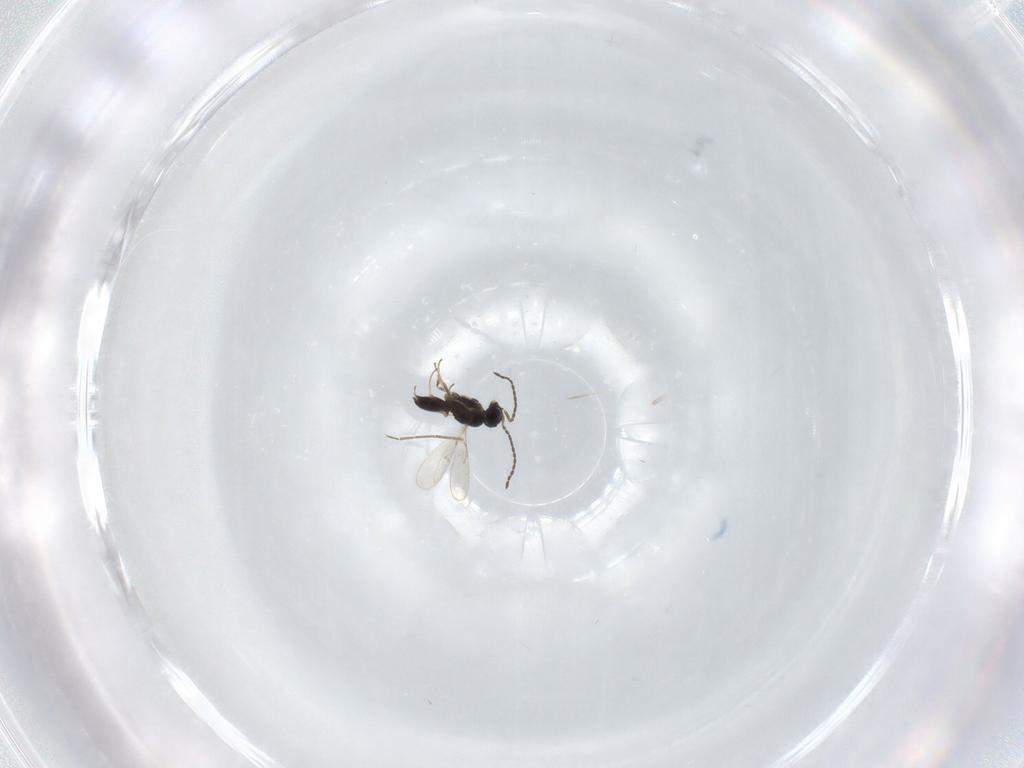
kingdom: Animalia
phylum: Arthropoda
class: Insecta
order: Hymenoptera
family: Scelionidae
